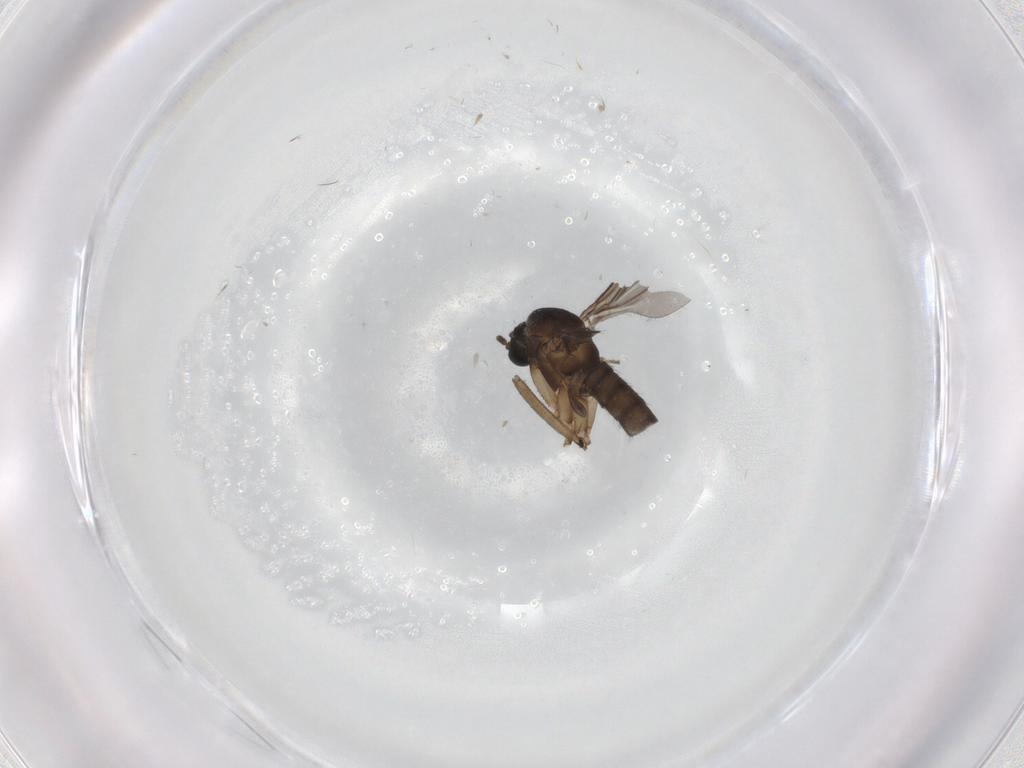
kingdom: Animalia
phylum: Arthropoda
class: Insecta
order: Diptera
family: Sciaridae
